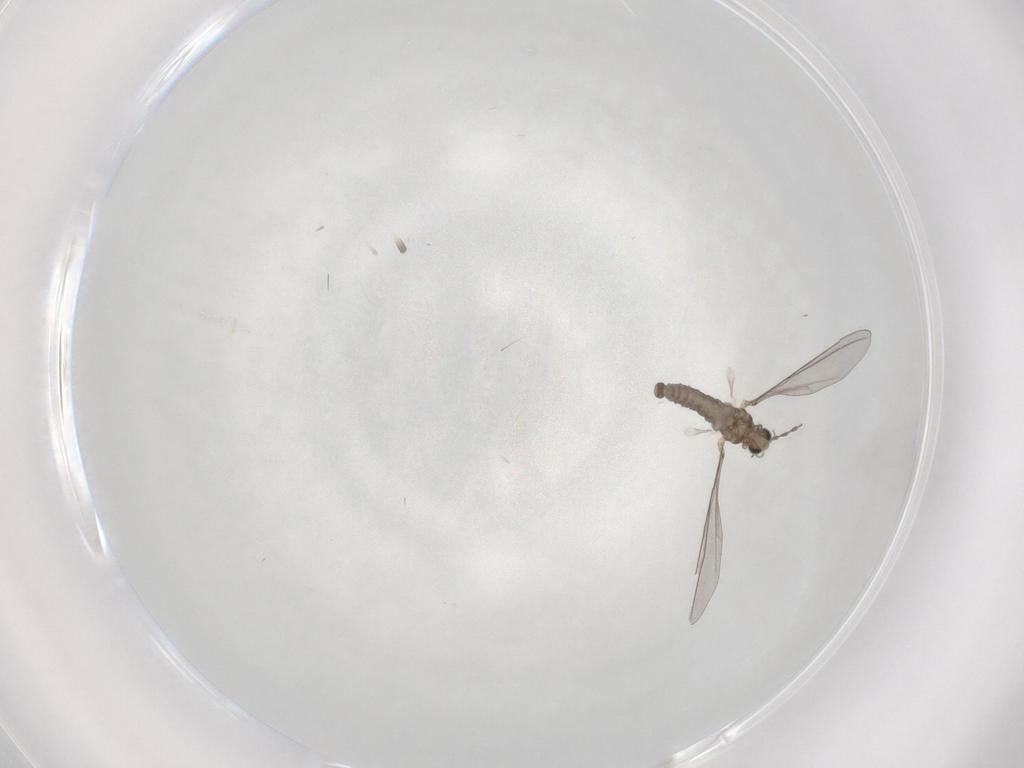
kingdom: Animalia
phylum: Arthropoda
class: Insecta
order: Diptera
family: Cecidomyiidae
